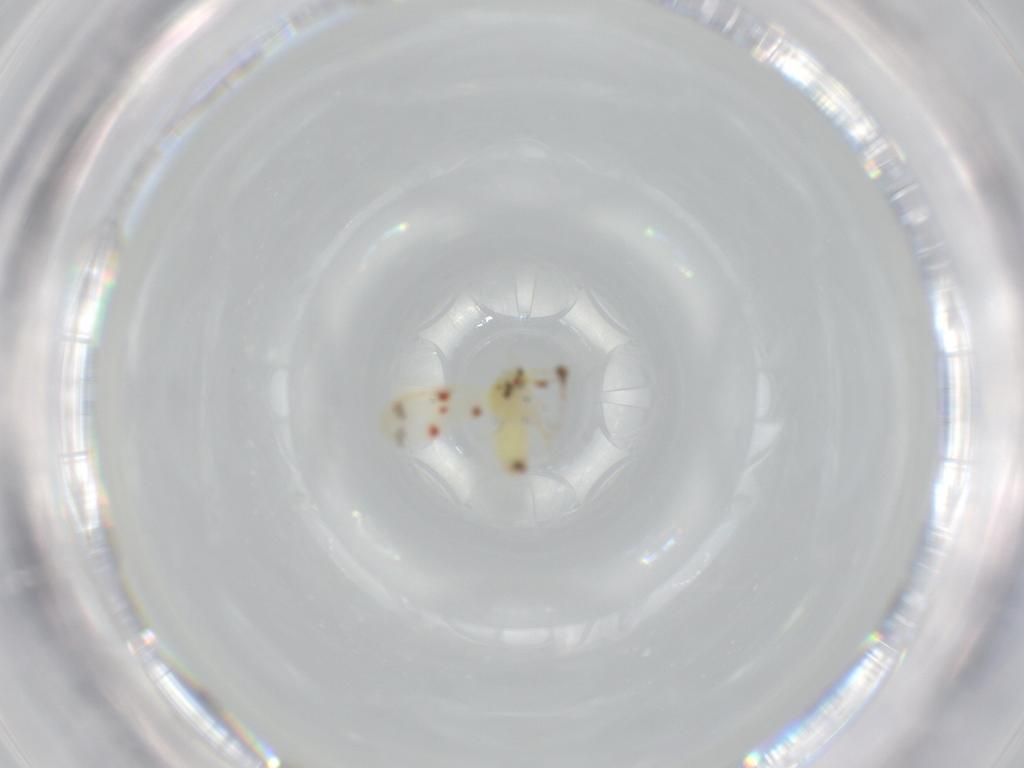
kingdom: Animalia
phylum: Arthropoda
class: Insecta
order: Hemiptera
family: Aleyrodidae
